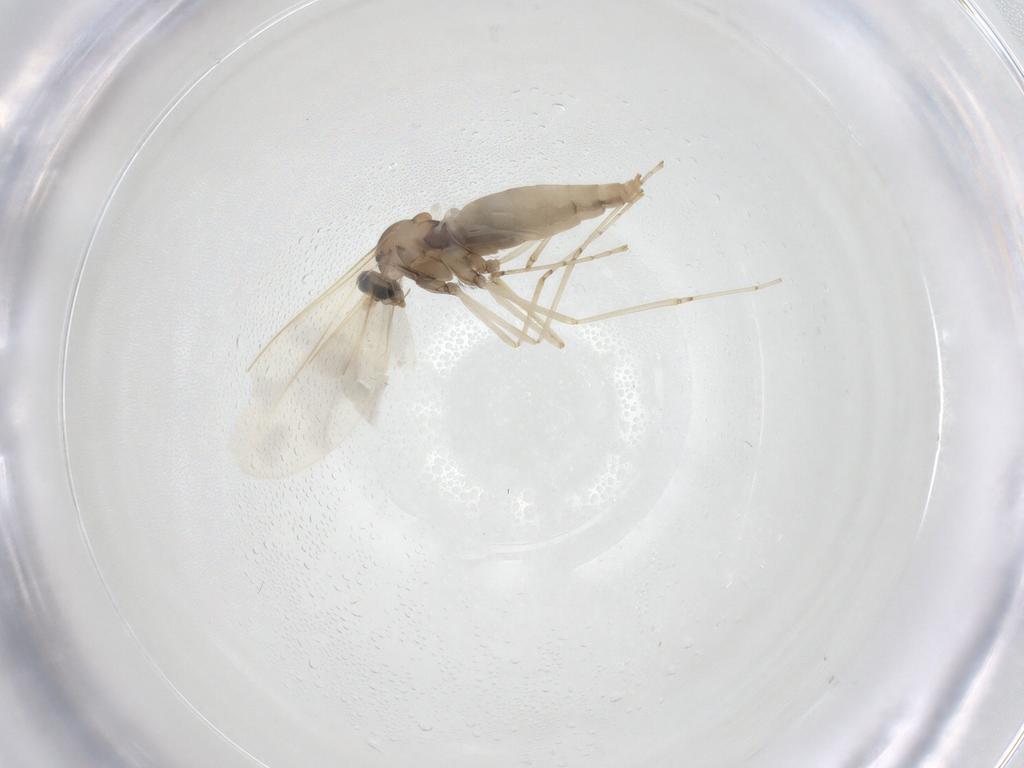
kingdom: Animalia
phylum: Arthropoda
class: Insecta
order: Diptera
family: Cecidomyiidae
